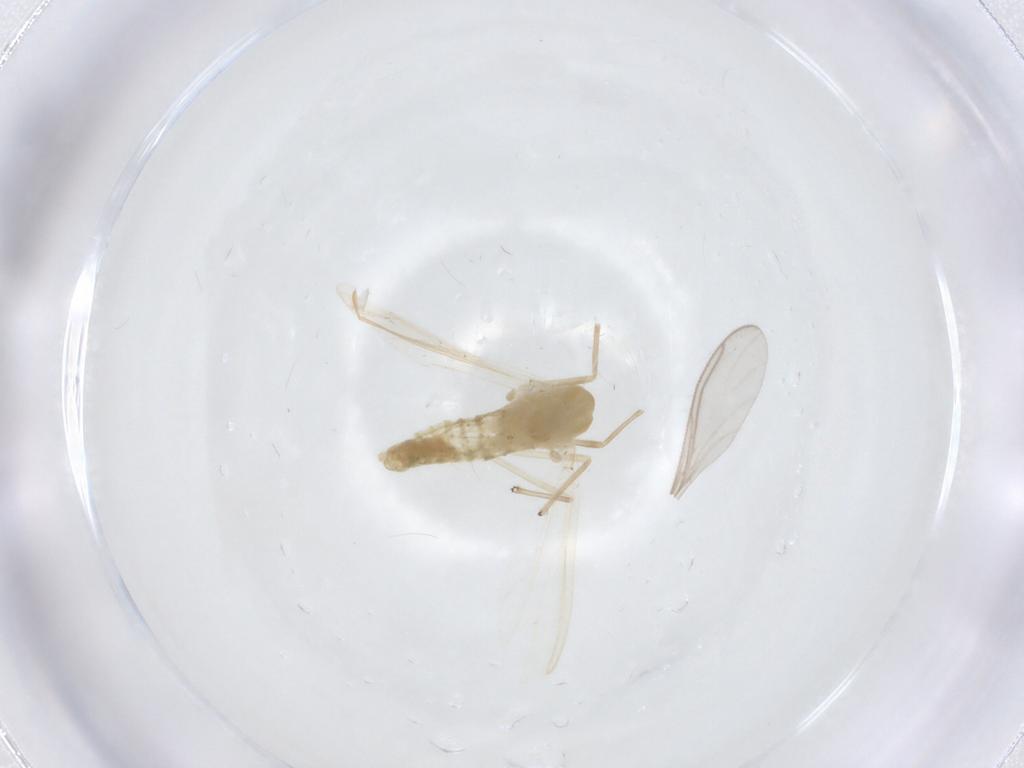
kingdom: Animalia
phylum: Arthropoda
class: Insecta
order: Diptera
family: Chironomidae
